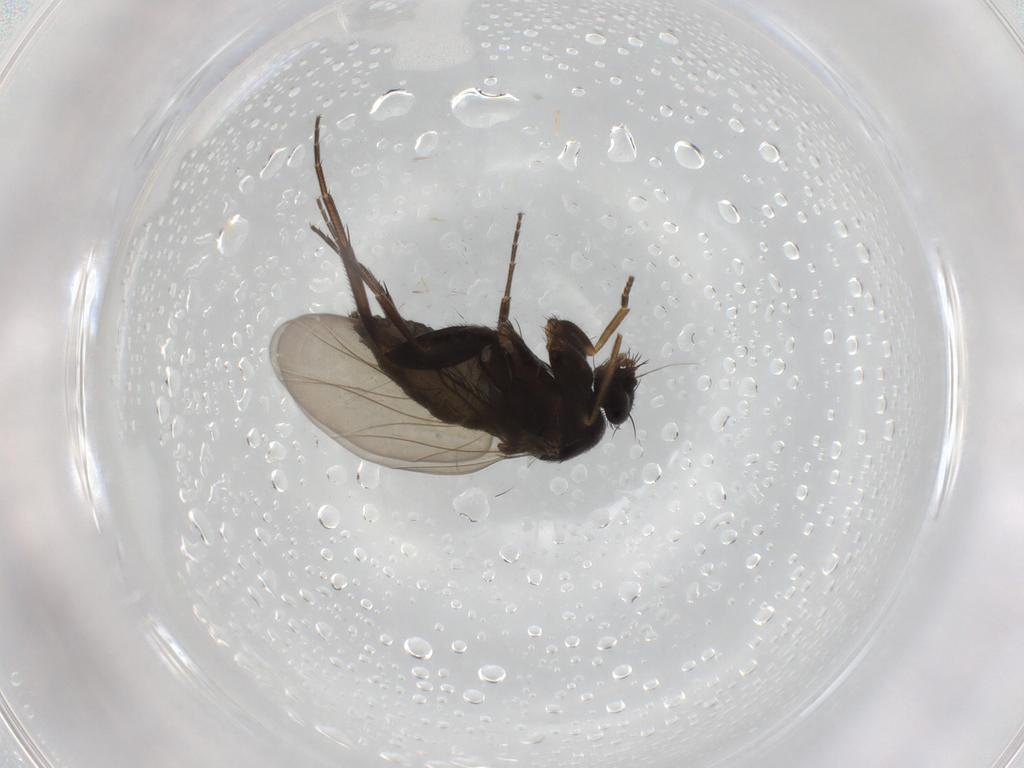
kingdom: Animalia
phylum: Arthropoda
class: Insecta
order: Diptera
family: Phoridae
